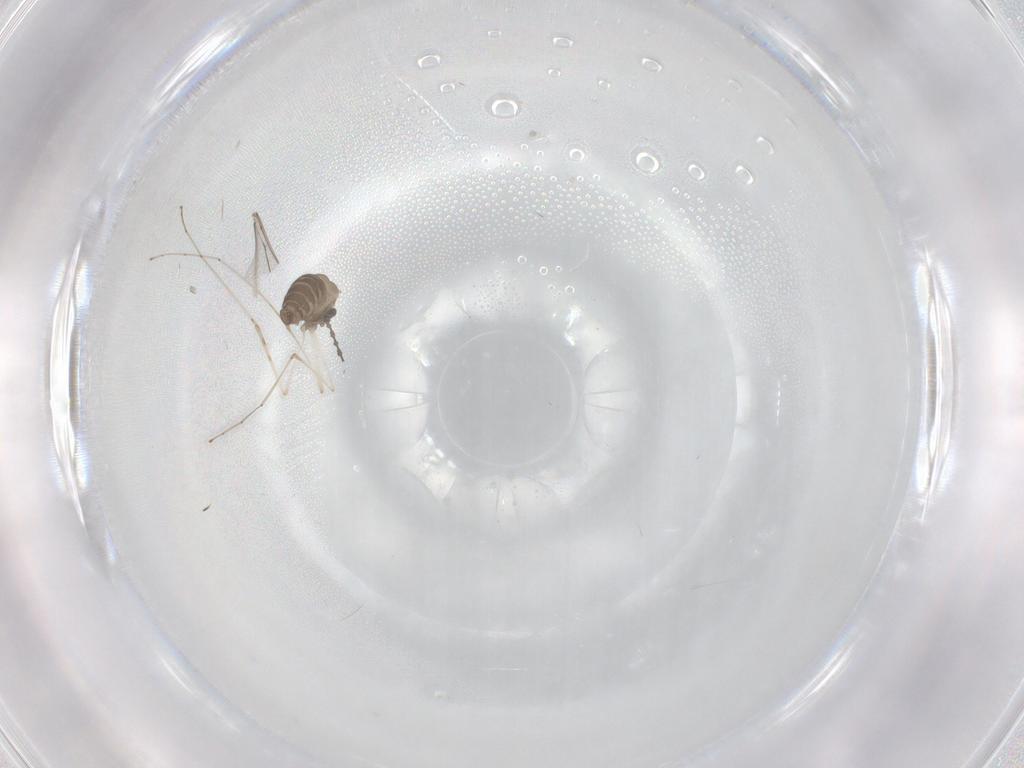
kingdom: Animalia
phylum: Arthropoda
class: Insecta
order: Diptera
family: Cecidomyiidae
